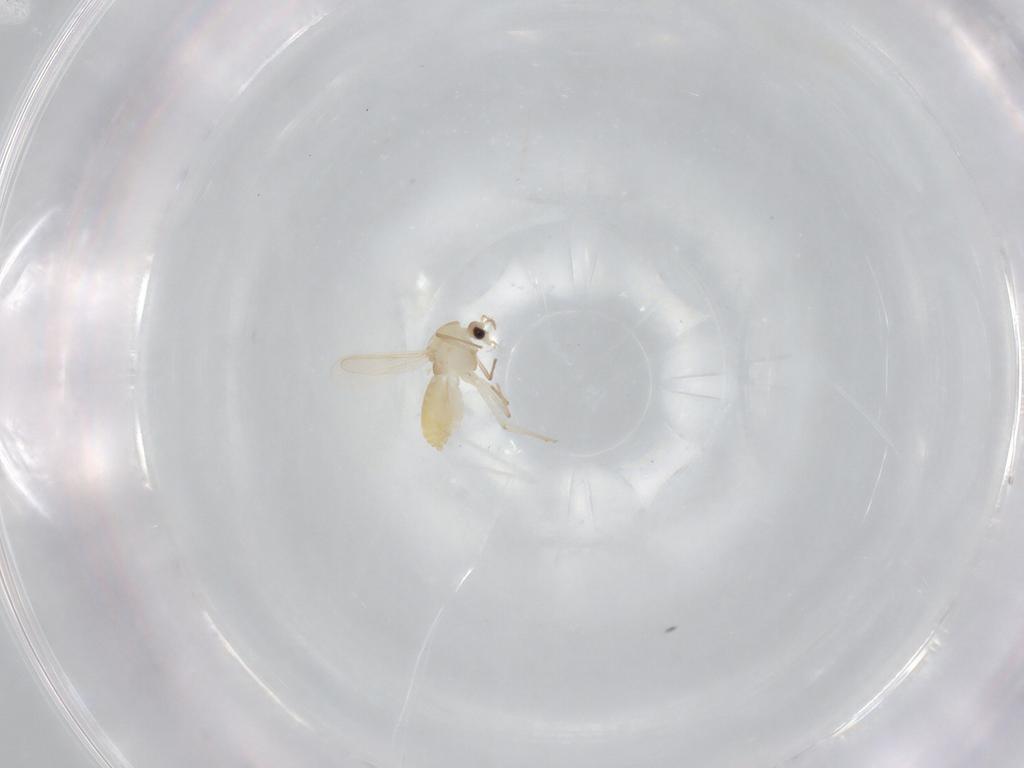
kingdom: Animalia
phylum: Arthropoda
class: Insecta
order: Diptera
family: Chironomidae
